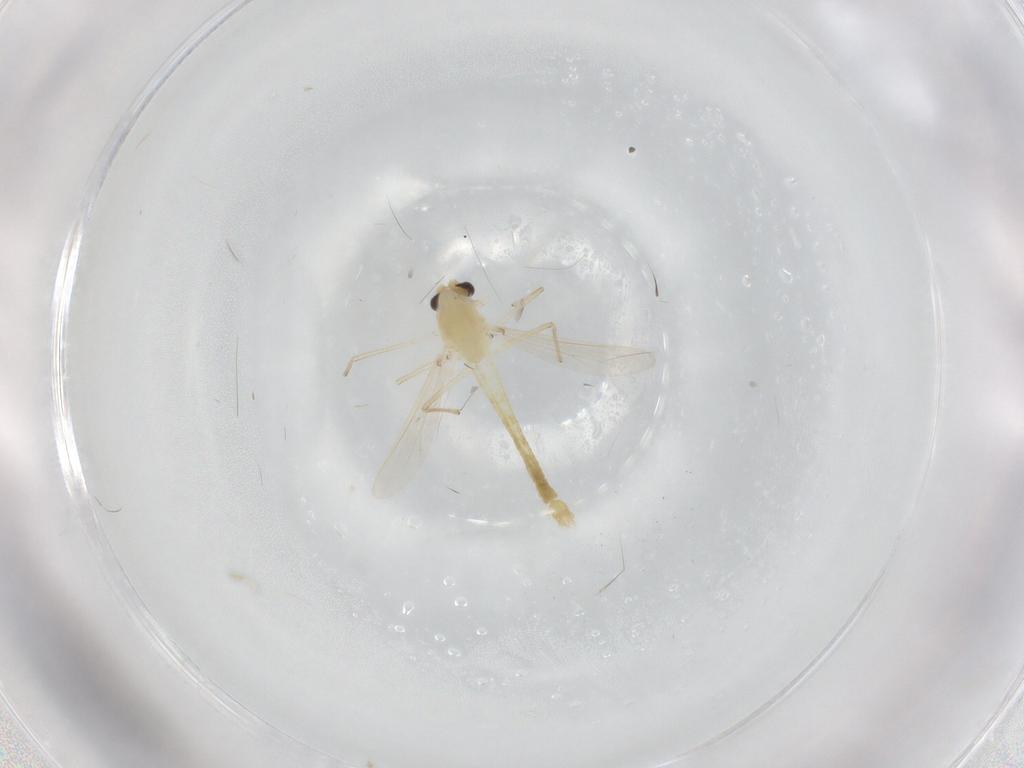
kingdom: Animalia
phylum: Arthropoda
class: Insecta
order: Diptera
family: Chironomidae
